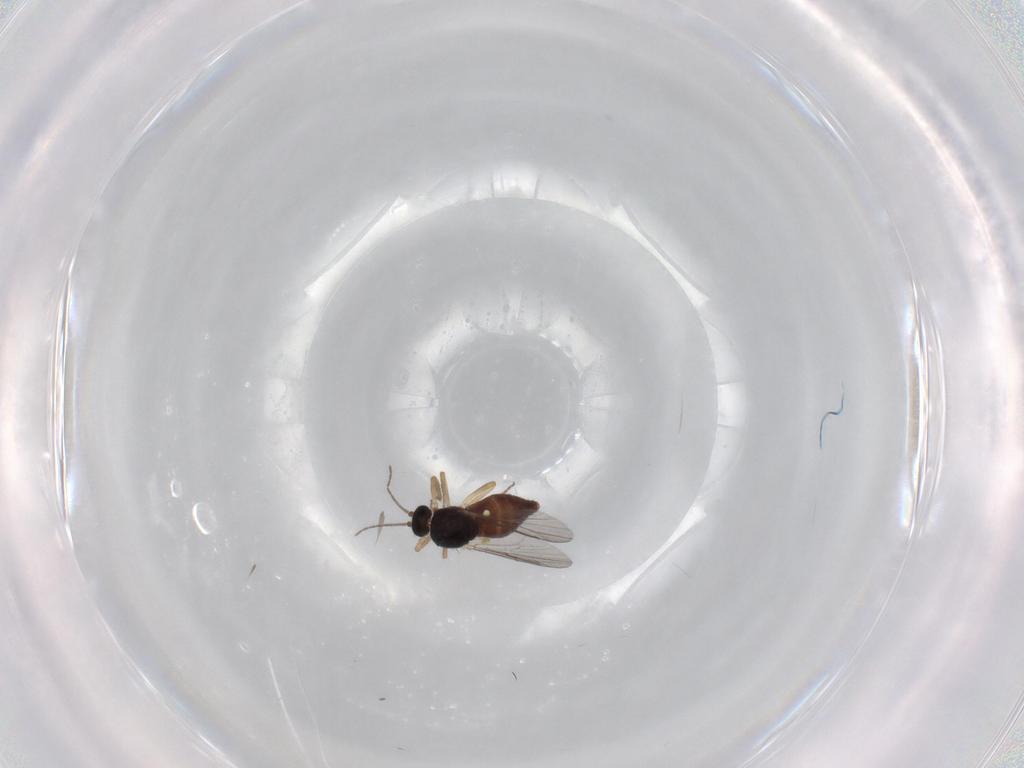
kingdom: Animalia
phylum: Arthropoda
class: Insecta
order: Diptera
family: Ceratopogonidae
